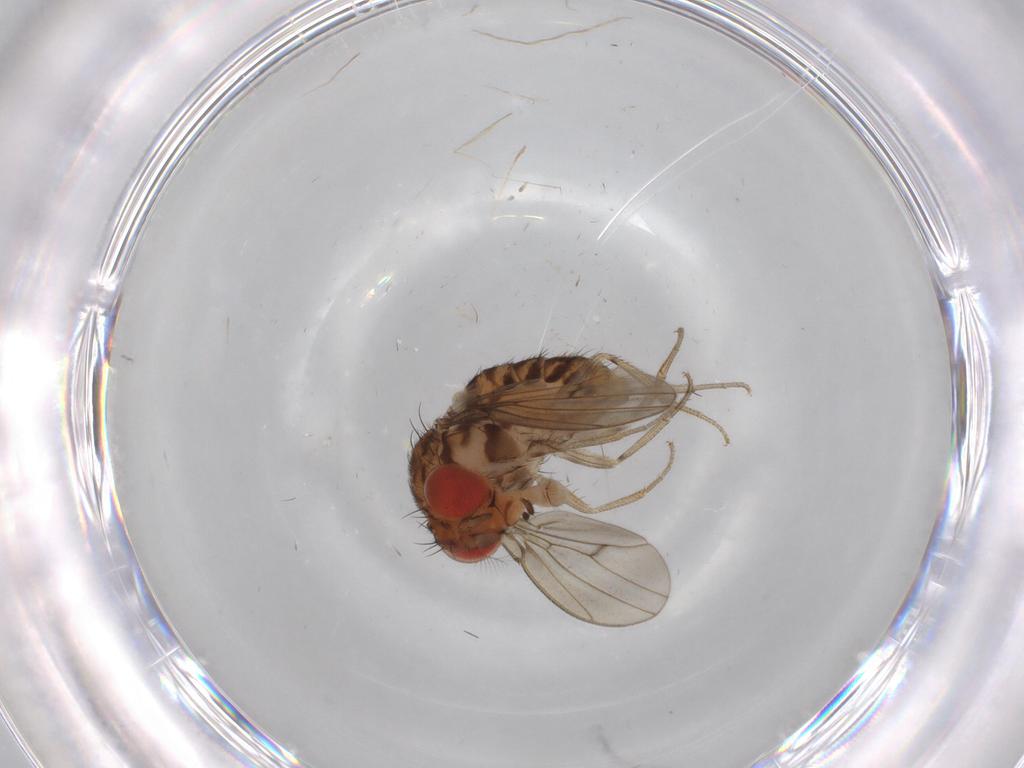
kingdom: Animalia
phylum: Arthropoda
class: Insecta
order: Diptera
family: Drosophilidae
